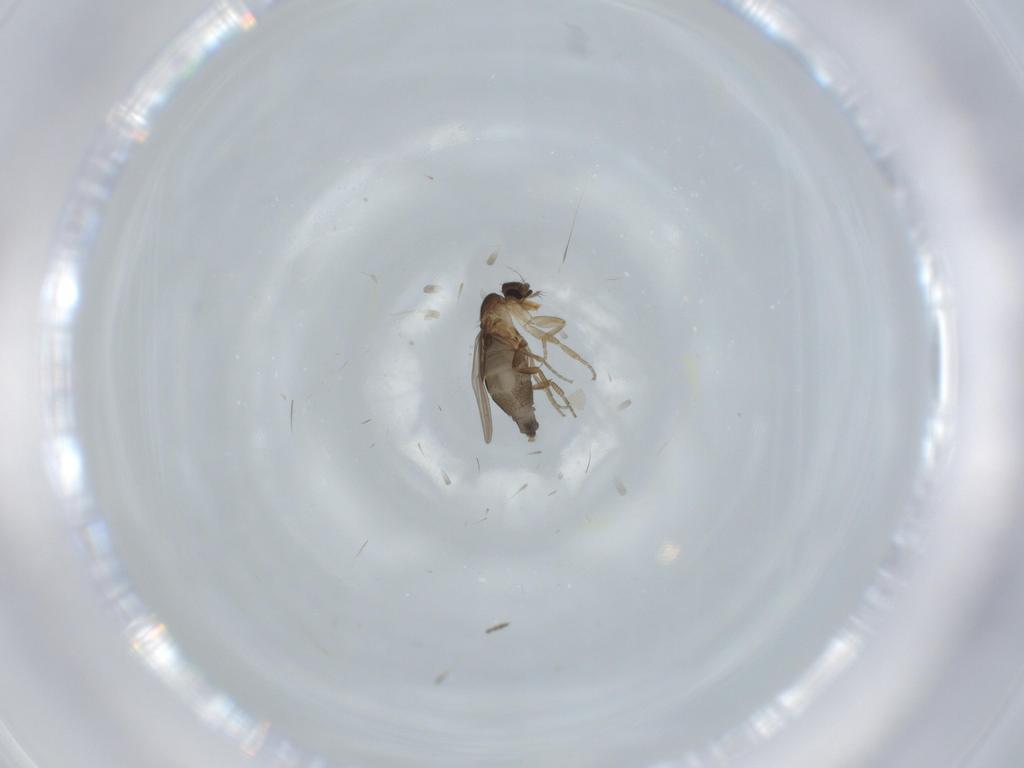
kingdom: Animalia
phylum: Arthropoda
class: Insecta
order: Diptera
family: Phoridae
